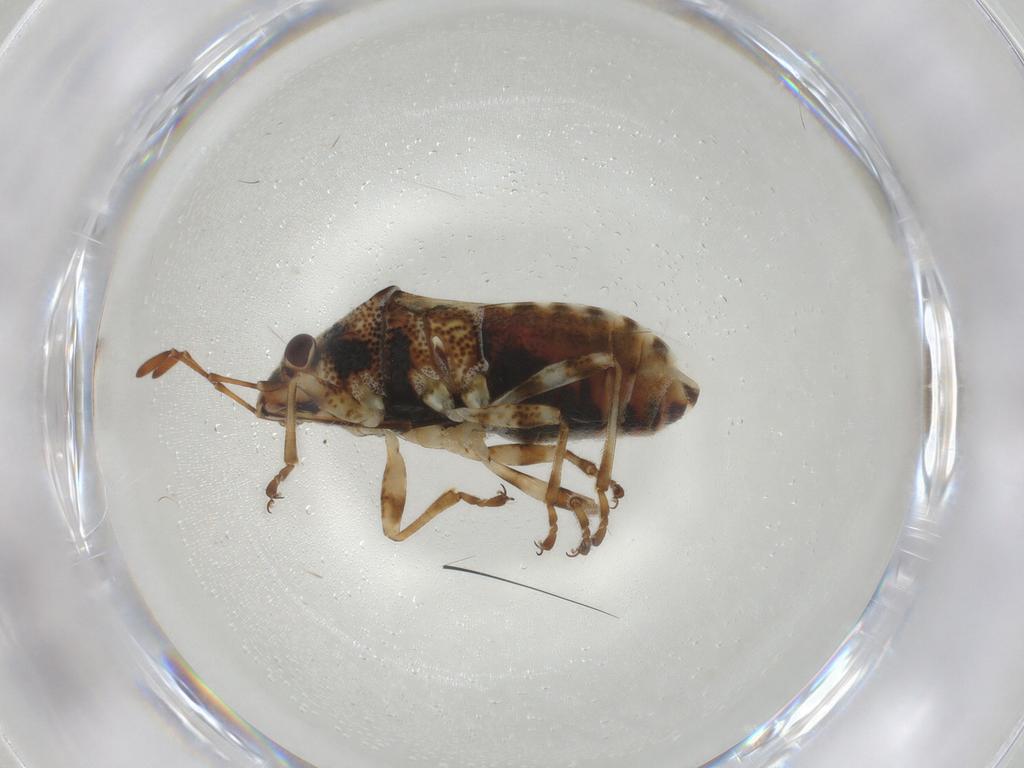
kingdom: Animalia
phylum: Arthropoda
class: Insecta
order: Hemiptera
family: Lygaeidae
